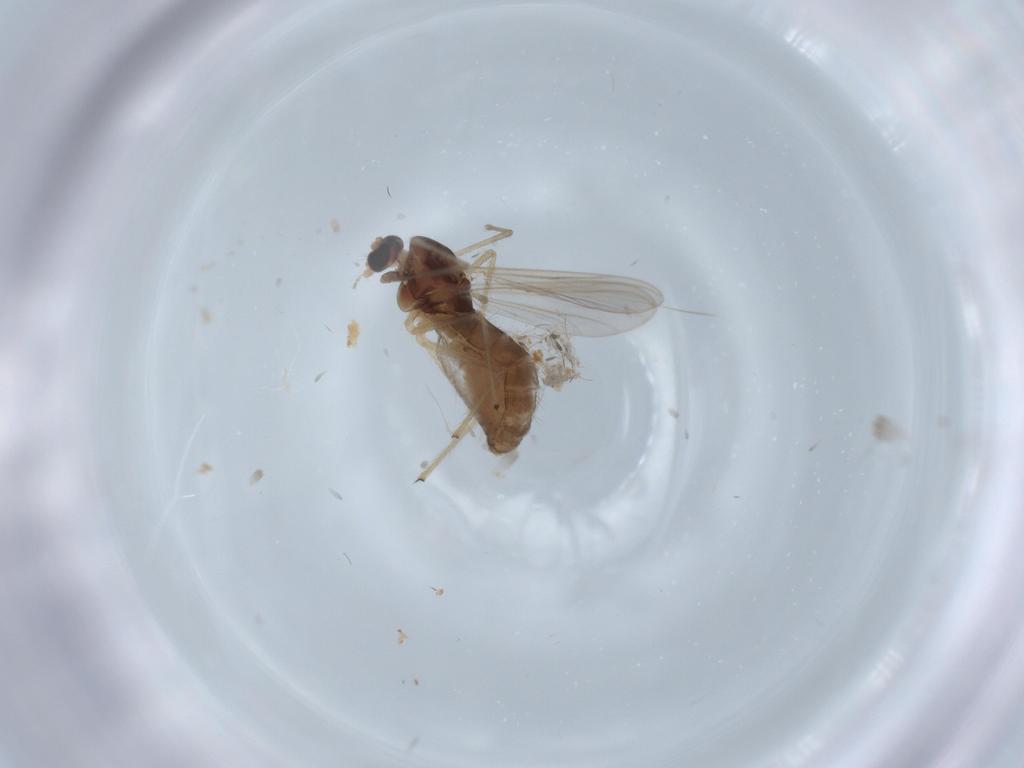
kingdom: Animalia
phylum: Arthropoda
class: Insecta
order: Diptera
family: Chironomidae
